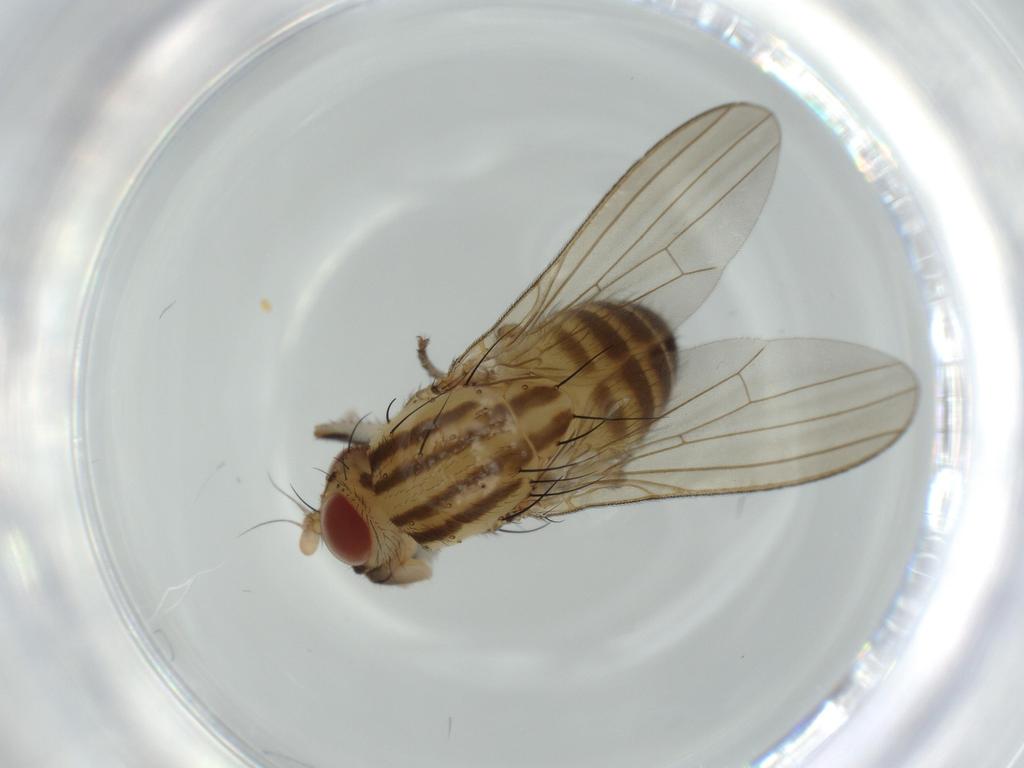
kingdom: Animalia
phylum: Arthropoda
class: Insecta
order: Diptera
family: Lauxaniidae
